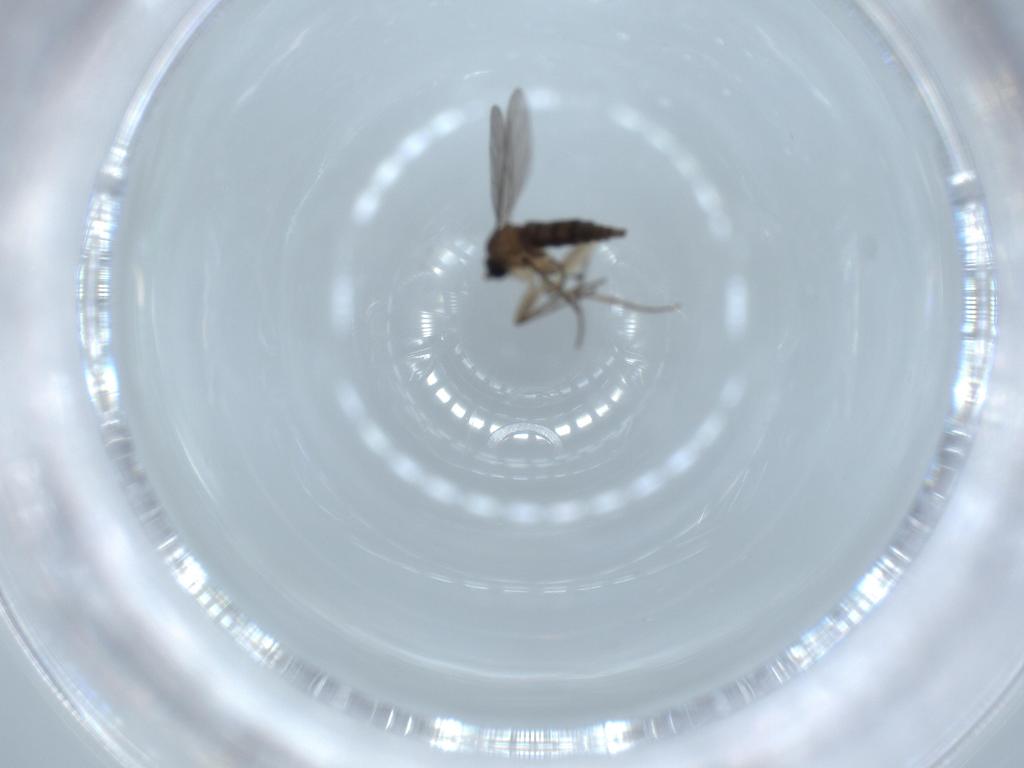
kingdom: Animalia
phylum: Arthropoda
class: Insecta
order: Diptera
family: Sciaridae
